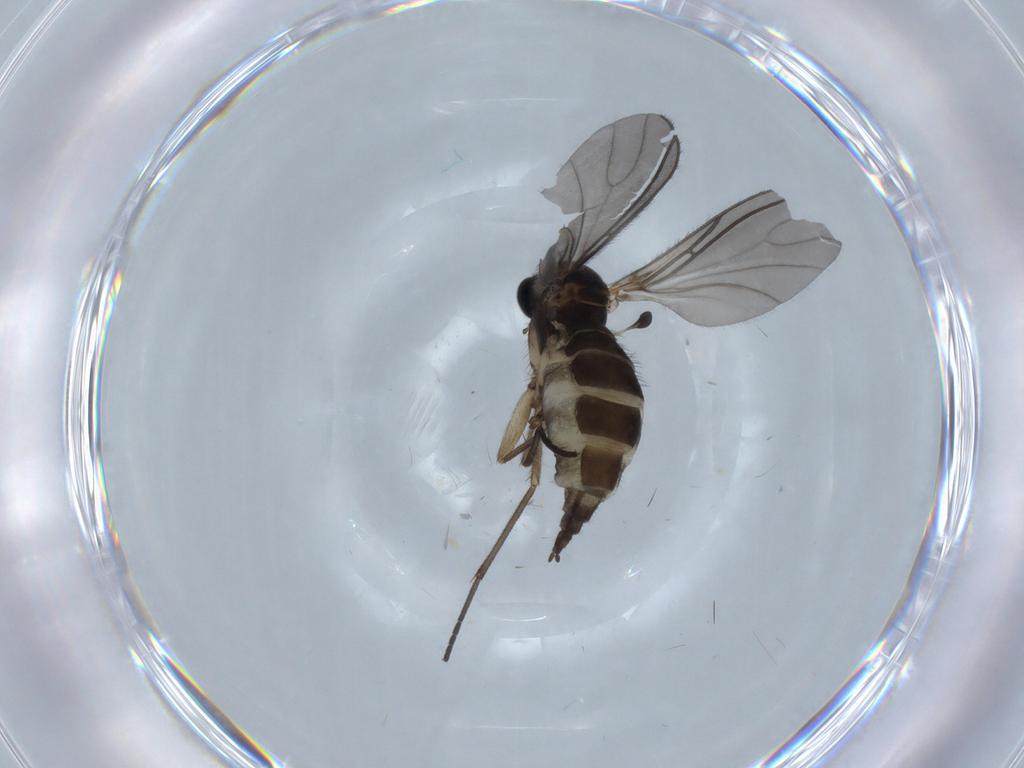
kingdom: Animalia
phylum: Arthropoda
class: Insecta
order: Diptera
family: Sciaridae
